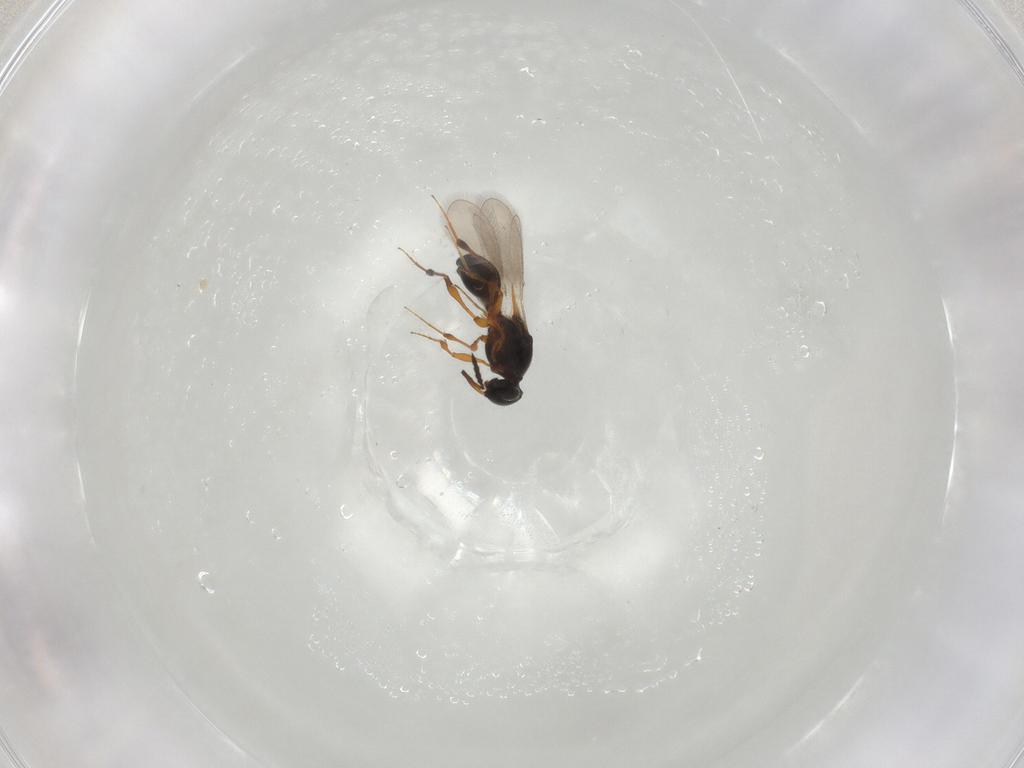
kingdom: Animalia
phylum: Arthropoda
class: Insecta
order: Hymenoptera
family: Platygastridae
